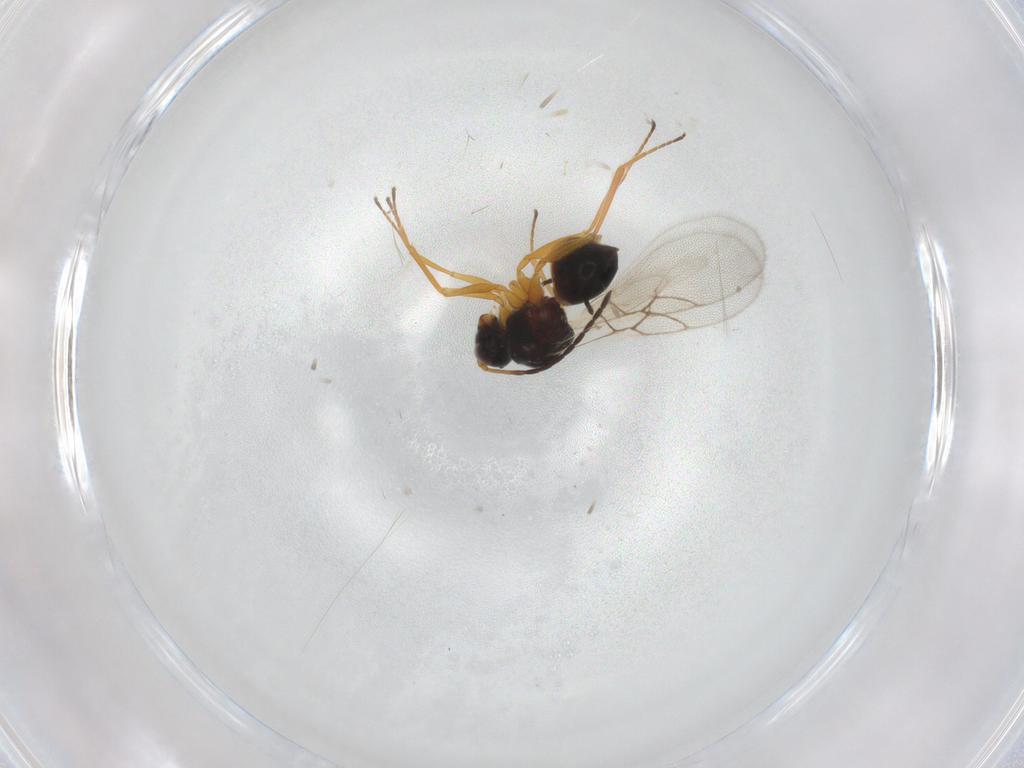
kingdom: Animalia
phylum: Arthropoda
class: Insecta
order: Hymenoptera
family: Figitidae
